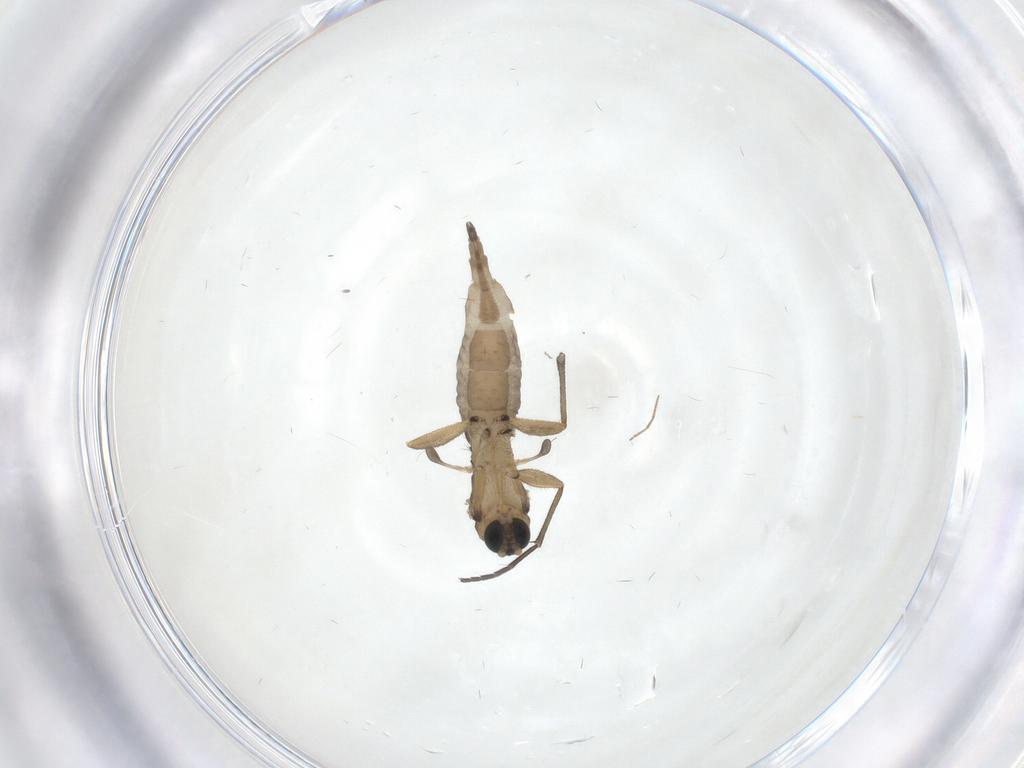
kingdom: Animalia
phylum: Arthropoda
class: Insecta
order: Diptera
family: Sciaridae
